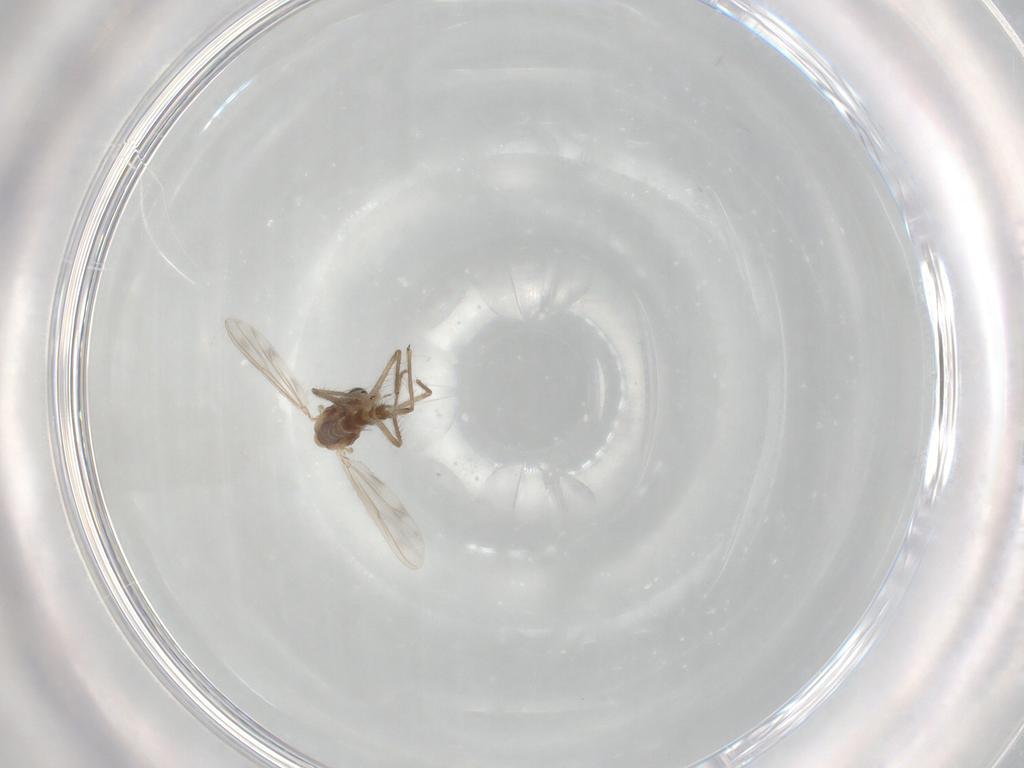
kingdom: Animalia
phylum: Arthropoda
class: Insecta
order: Diptera
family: Chironomidae
